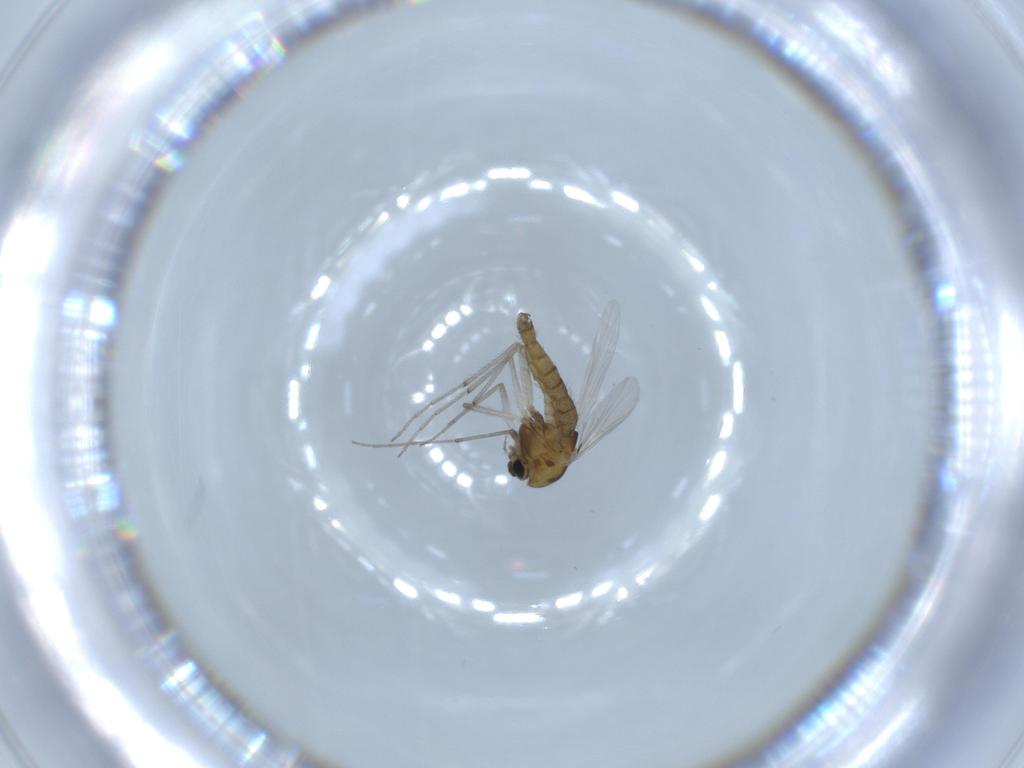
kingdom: Animalia
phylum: Arthropoda
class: Insecta
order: Diptera
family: Chironomidae
